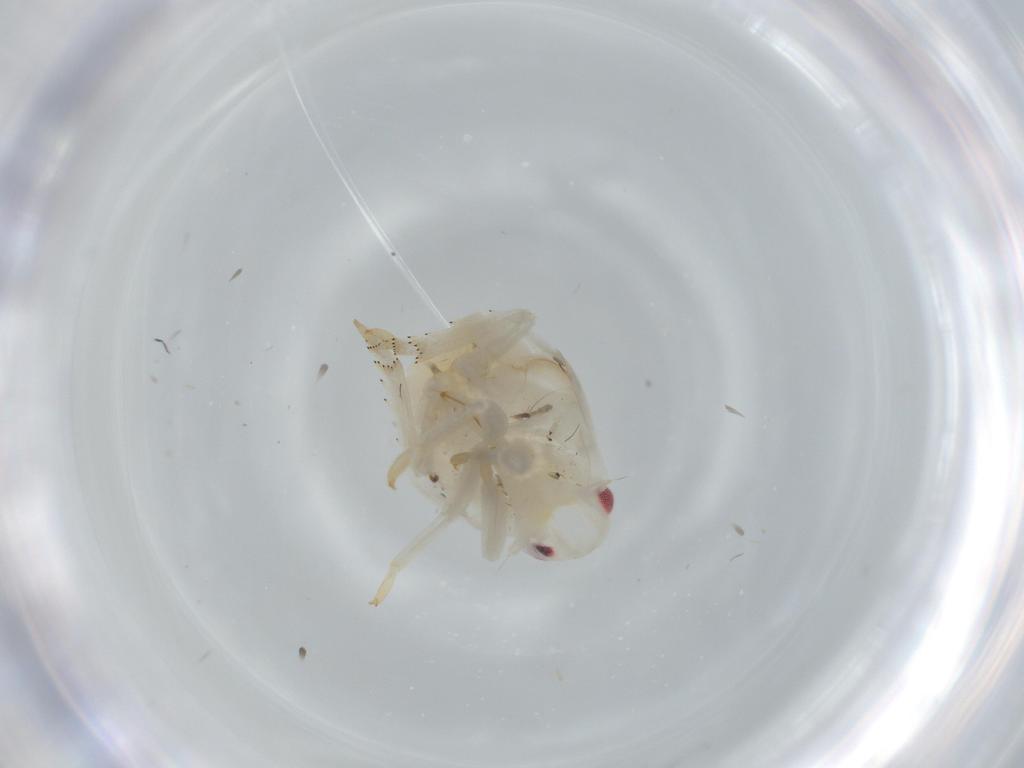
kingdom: Animalia
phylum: Arthropoda
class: Insecta
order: Hemiptera
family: Flatidae
